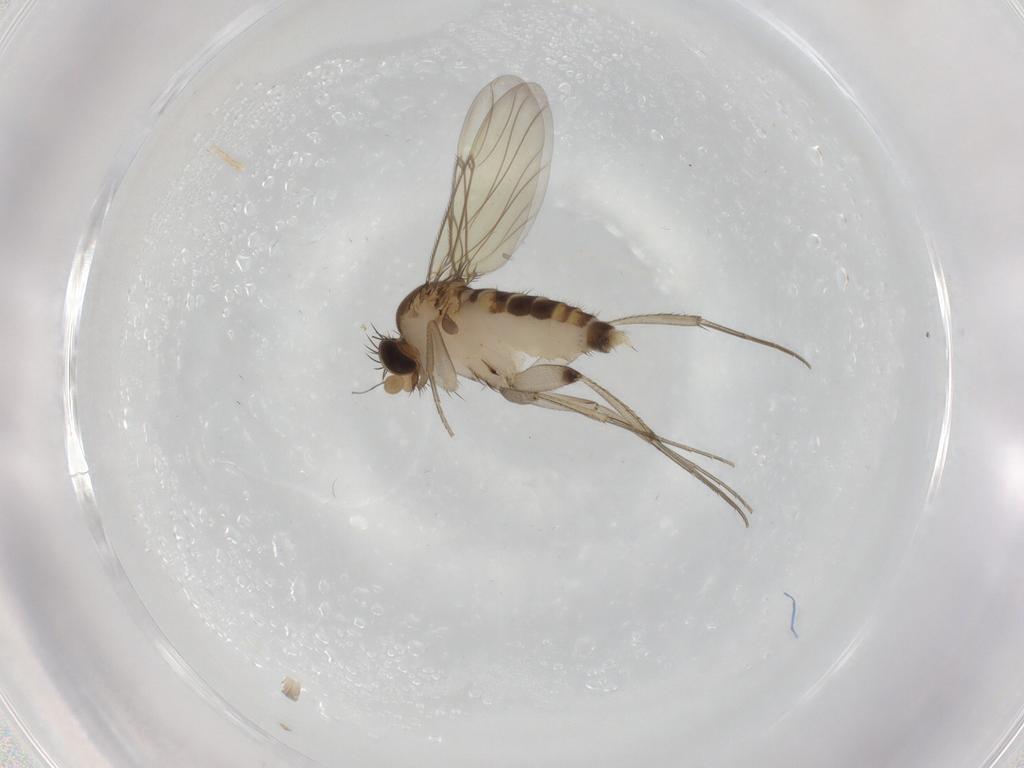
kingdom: Animalia
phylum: Arthropoda
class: Insecta
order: Diptera
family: Phoridae
